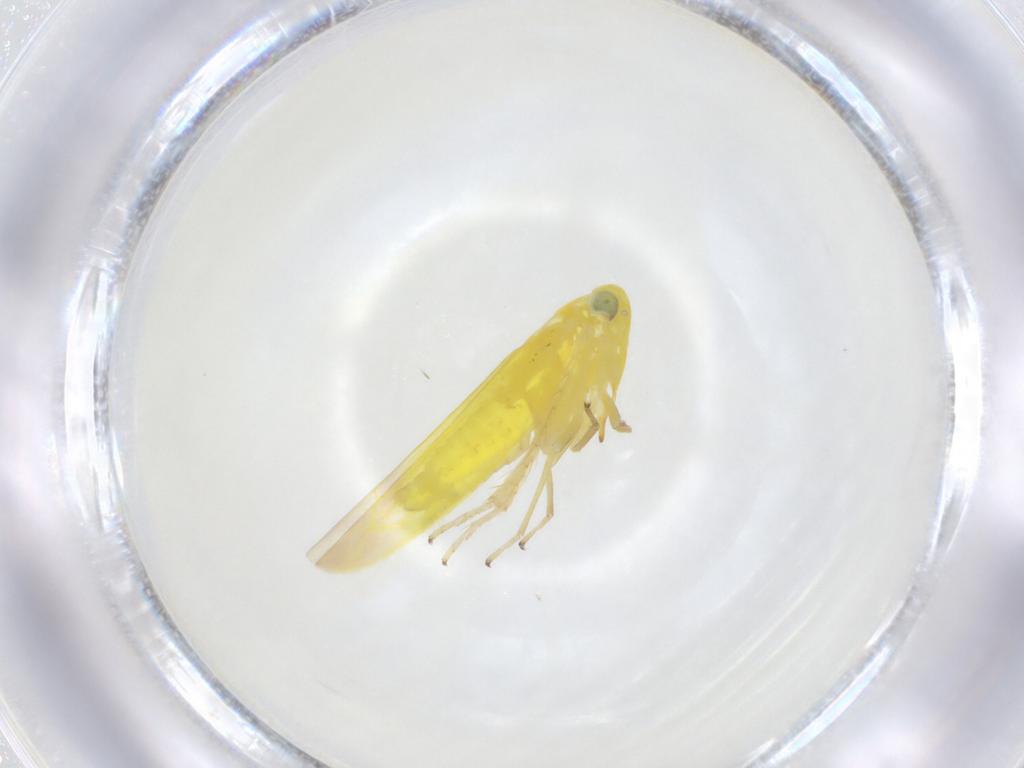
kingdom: Animalia
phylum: Arthropoda
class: Insecta
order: Hemiptera
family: Cicadellidae
